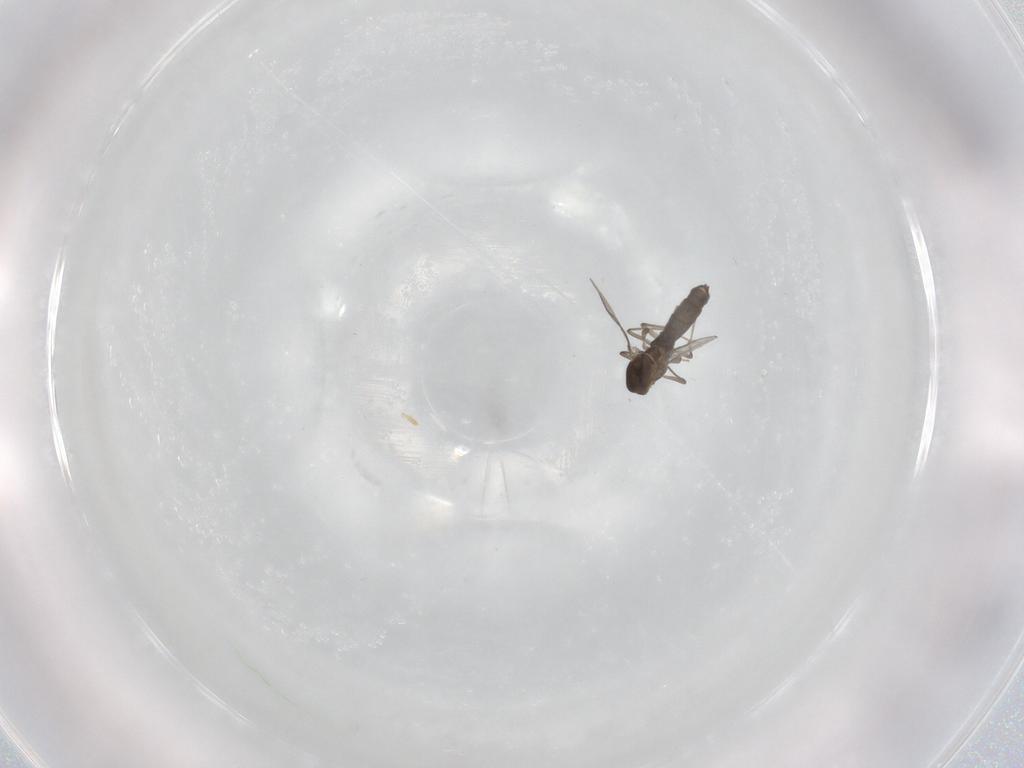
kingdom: Animalia
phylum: Arthropoda
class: Insecta
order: Diptera
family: Chironomidae
